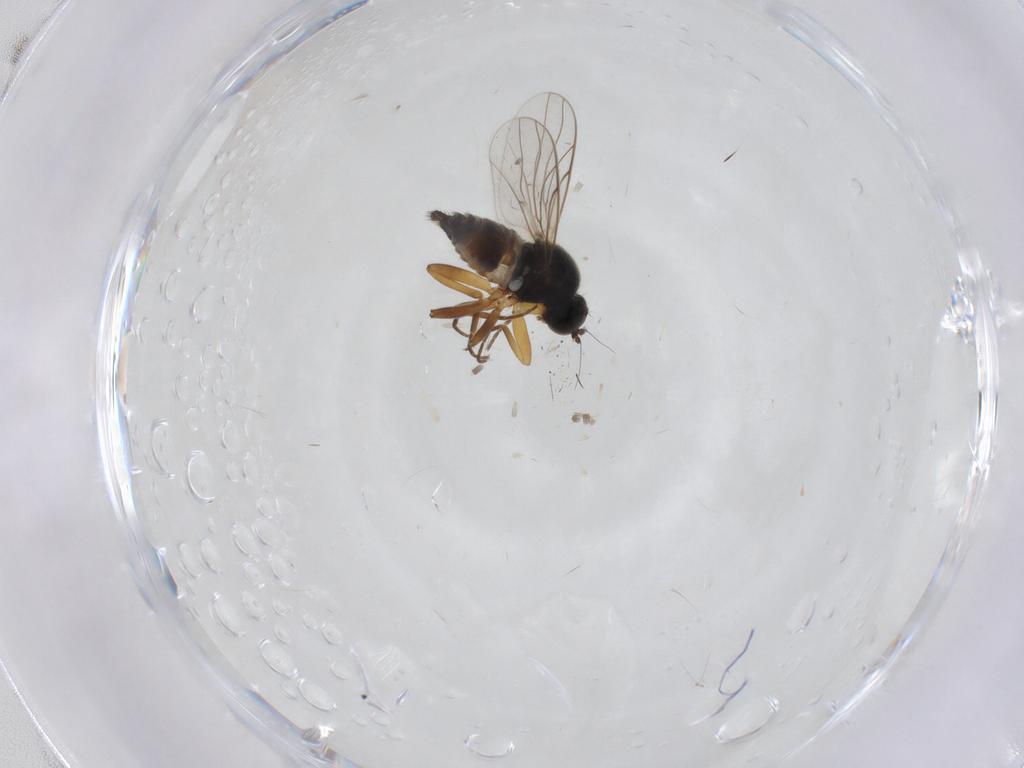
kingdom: Animalia
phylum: Arthropoda
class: Insecta
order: Diptera
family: Hybotidae
